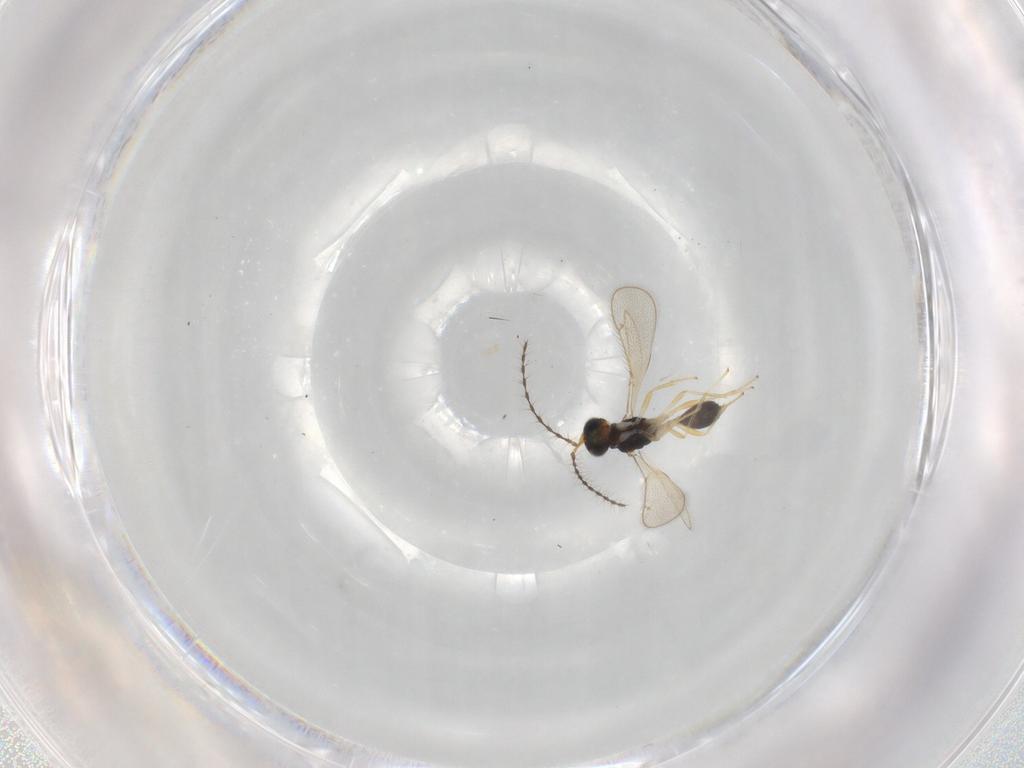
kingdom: Animalia
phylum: Arthropoda
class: Insecta
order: Hymenoptera
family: Diapriidae
